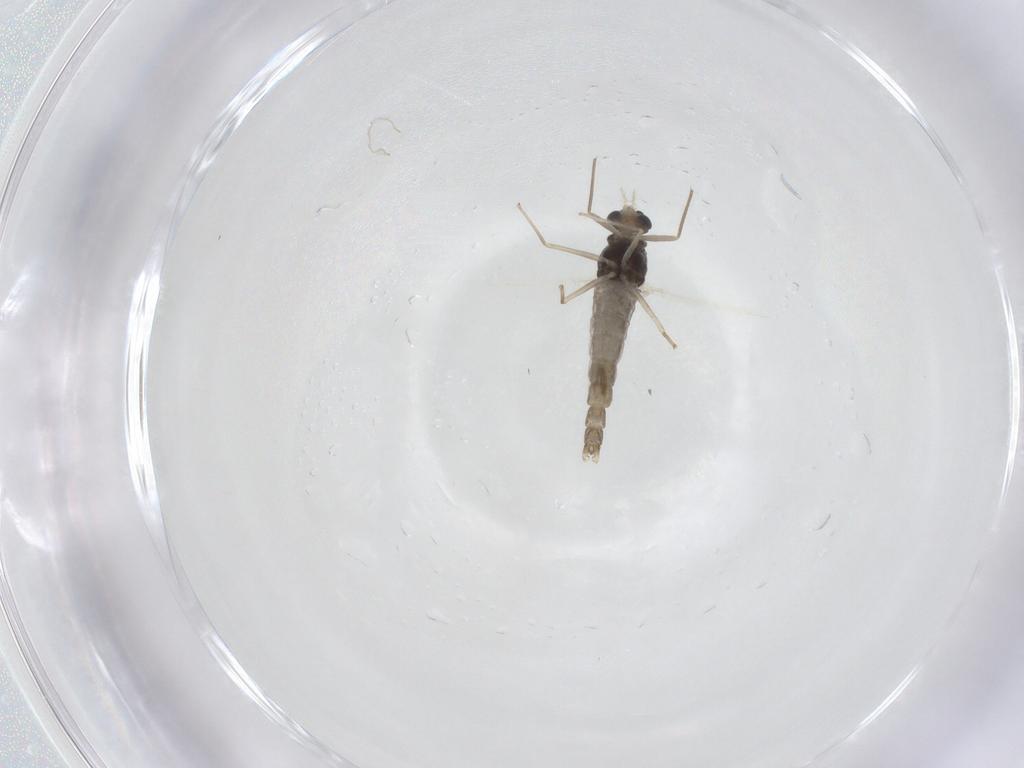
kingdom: Animalia
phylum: Arthropoda
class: Insecta
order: Diptera
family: Chironomidae
